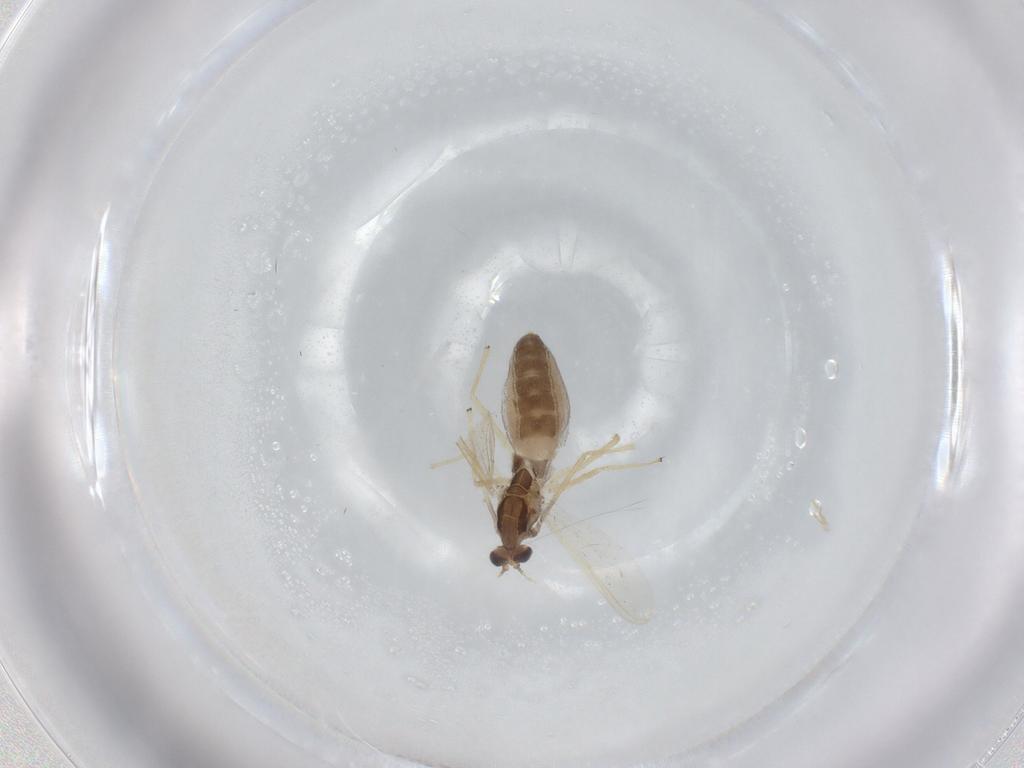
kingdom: Animalia
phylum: Arthropoda
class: Insecta
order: Diptera
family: Chironomidae
